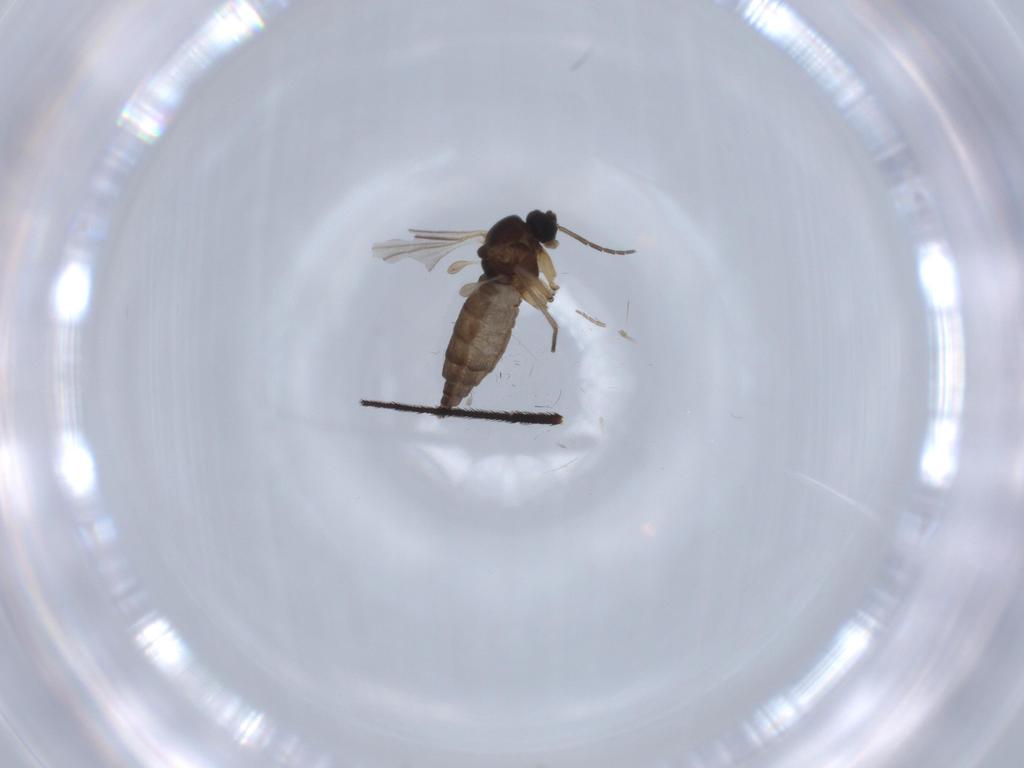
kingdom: Animalia
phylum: Arthropoda
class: Insecta
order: Diptera
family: Sciaridae
